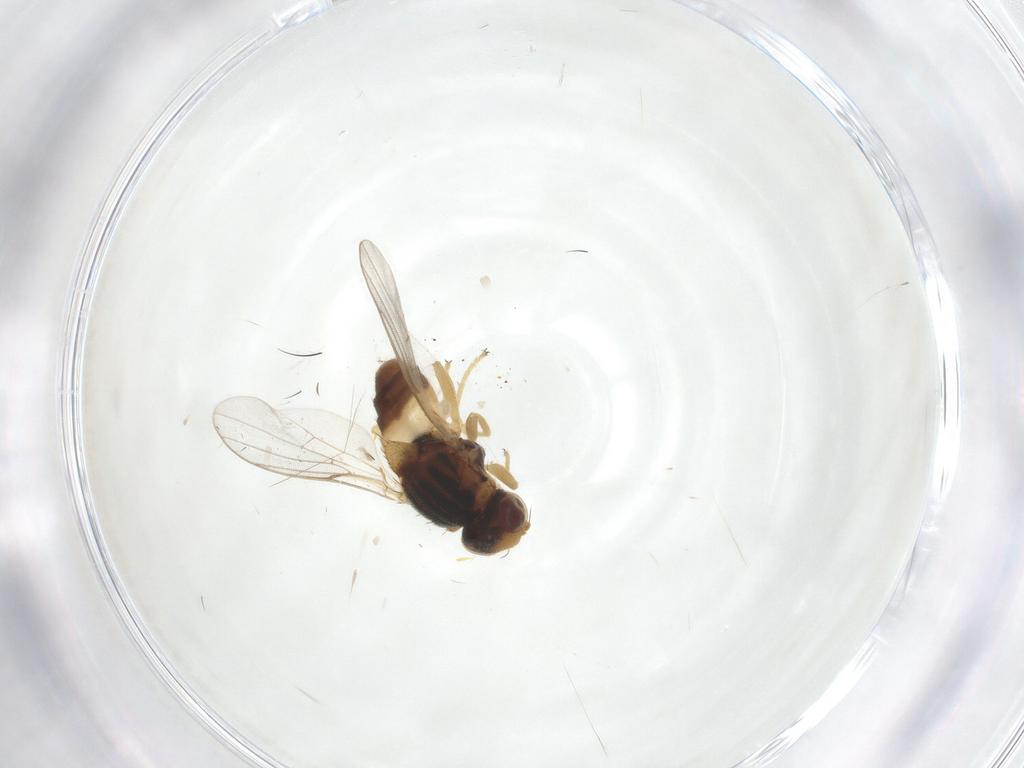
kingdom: Animalia
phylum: Arthropoda
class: Insecta
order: Diptera
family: Chloropidae
